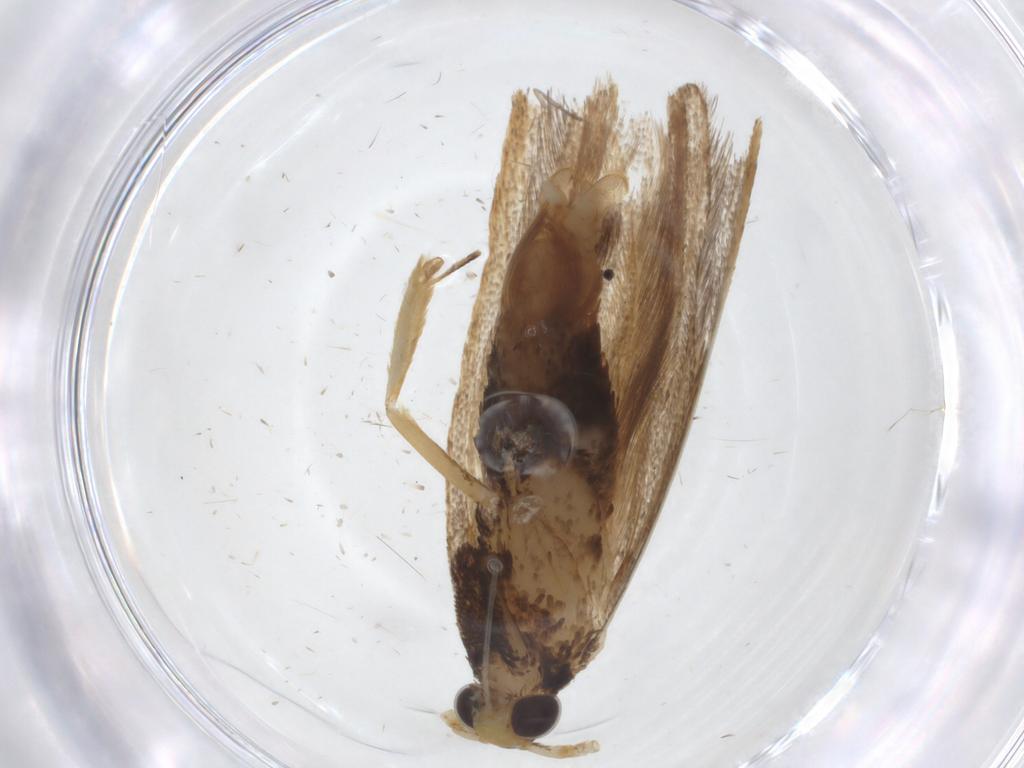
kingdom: Animalia
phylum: Arthropoda
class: Insecta
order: Lepidoptera
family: Lecithoceridae
